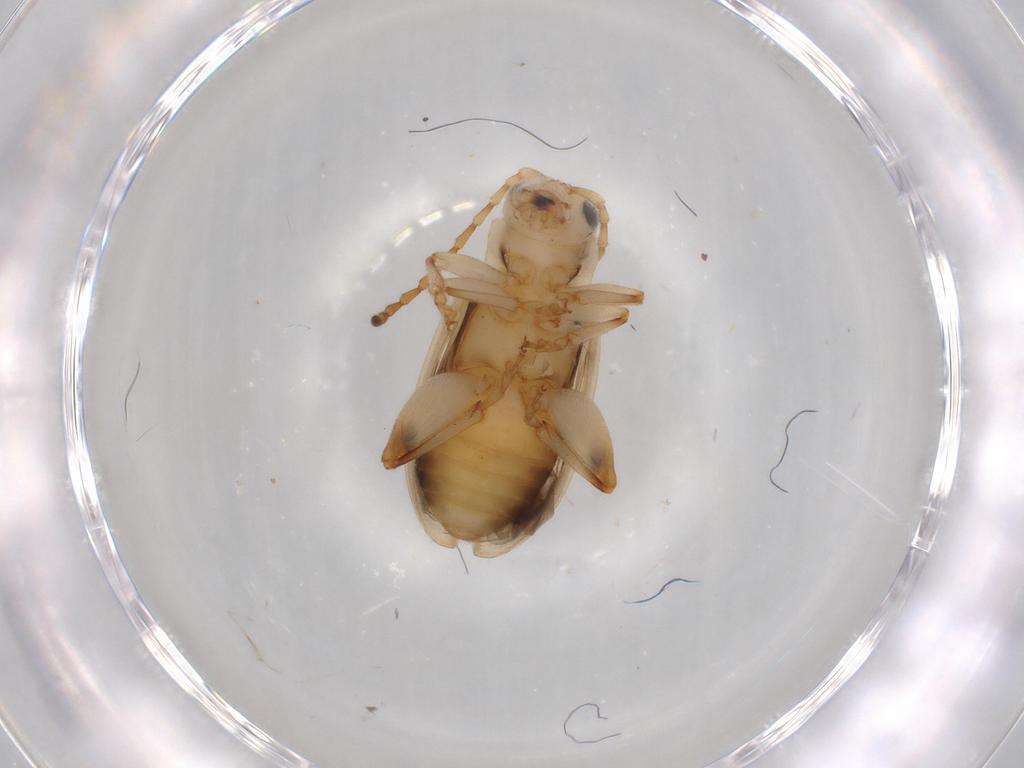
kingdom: Animalia
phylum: Arthropoda
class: Insecta
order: Coleoptera
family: Chrysomelidae
